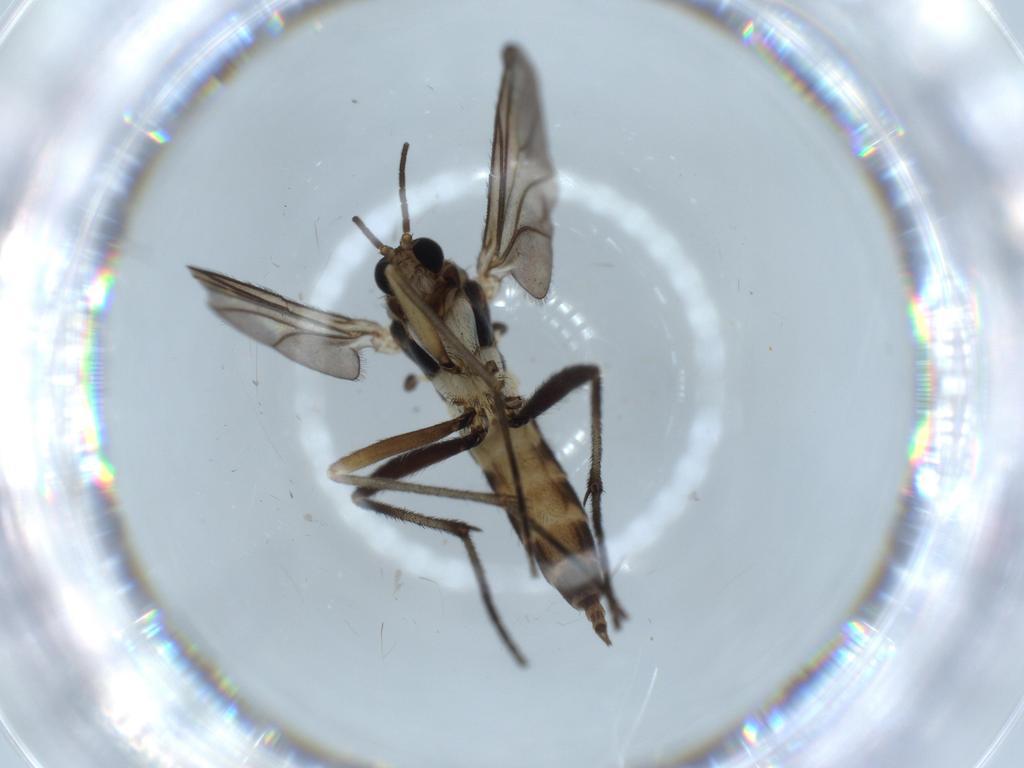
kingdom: Animalia
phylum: Arthropoda
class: Insecta
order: Diptera
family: Sciaridae
